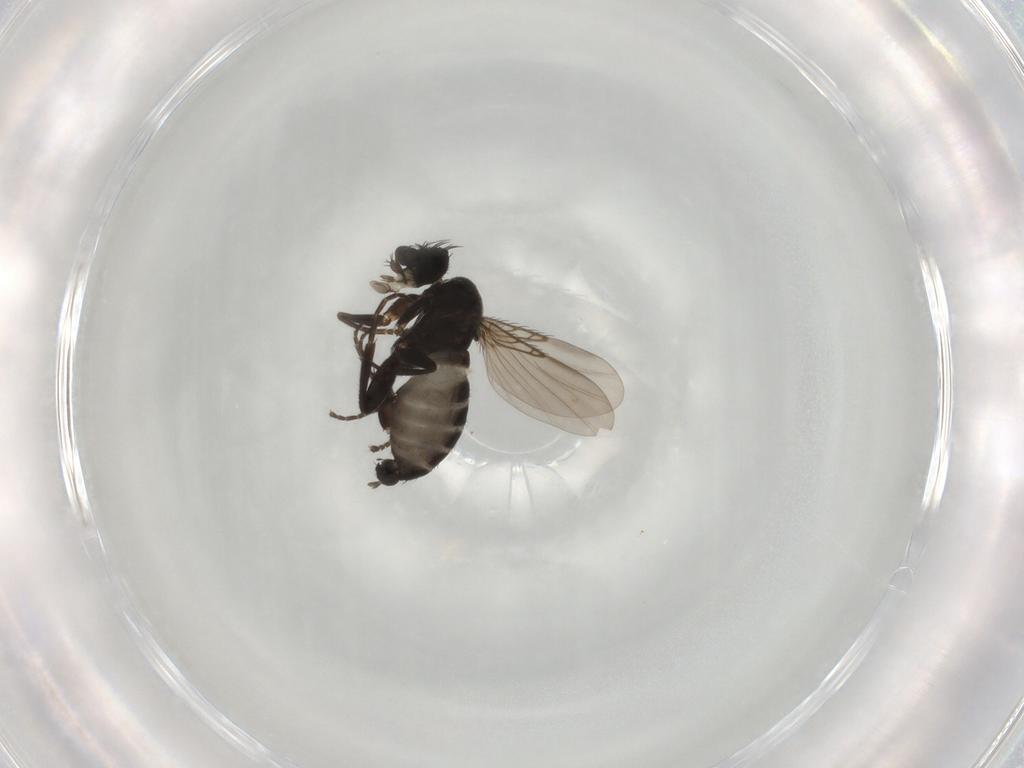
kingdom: Animalia
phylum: Arthropoda
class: Insecta
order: Diptera
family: Phoridae
